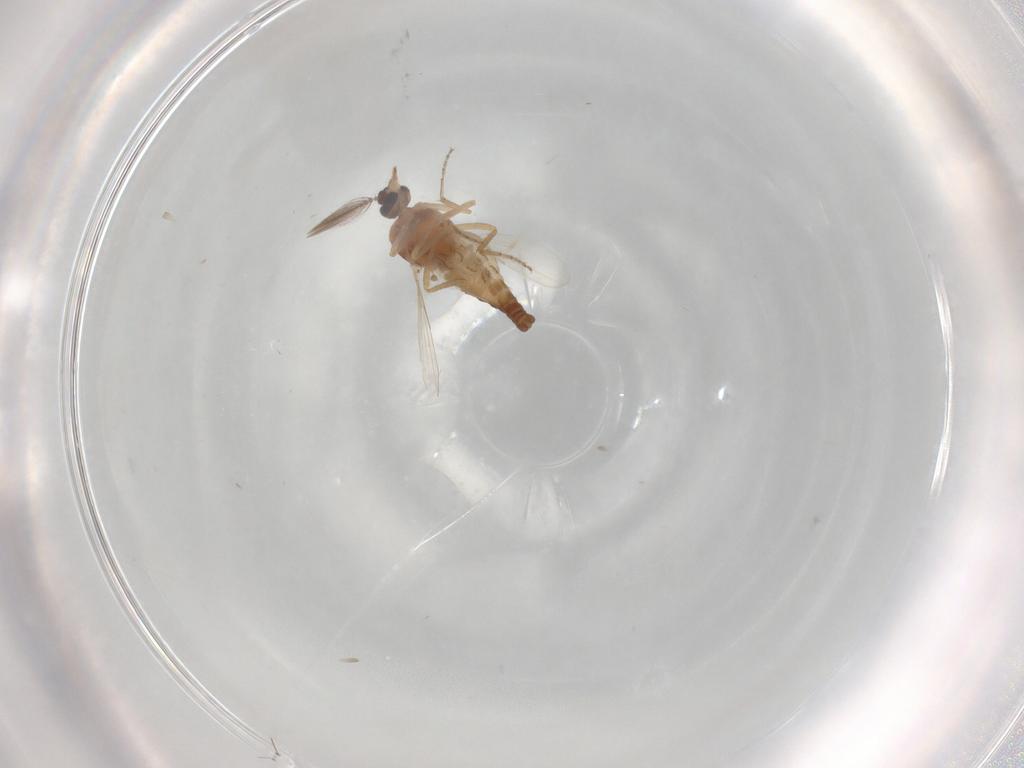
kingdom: Animalia
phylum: Arthropoda
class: Insecta
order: Diptera
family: Ceratopogonidae
